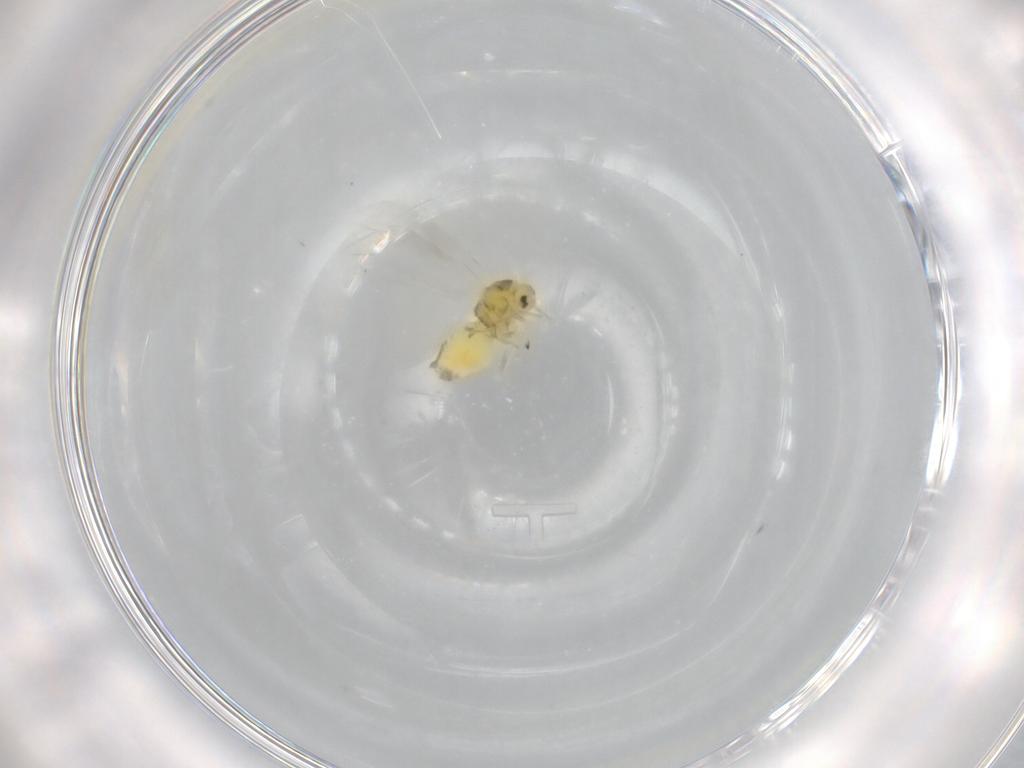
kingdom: Animalia
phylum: Arthropoda
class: Insecta
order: Hemiptera
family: Aleyrodidae
